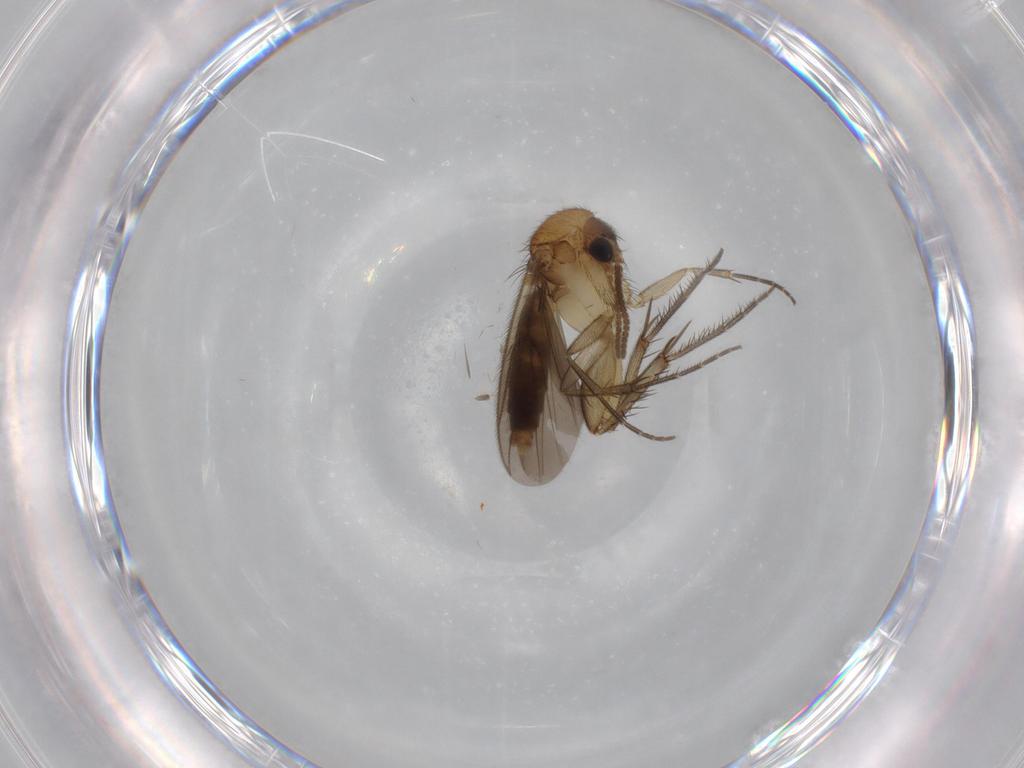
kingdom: Animalia
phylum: Arthropoda
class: Insecta
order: Diptera
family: Mycetophilidae
